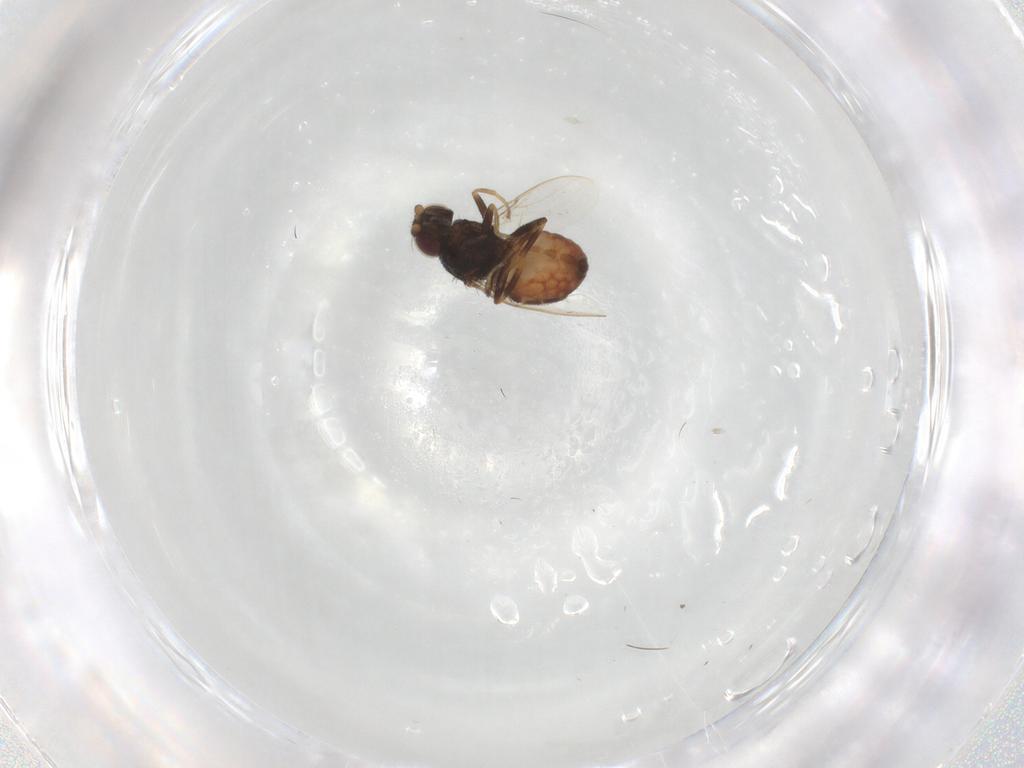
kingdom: Animalia
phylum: Arthropoda
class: Insecta
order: Diptera
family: Chloropidae
